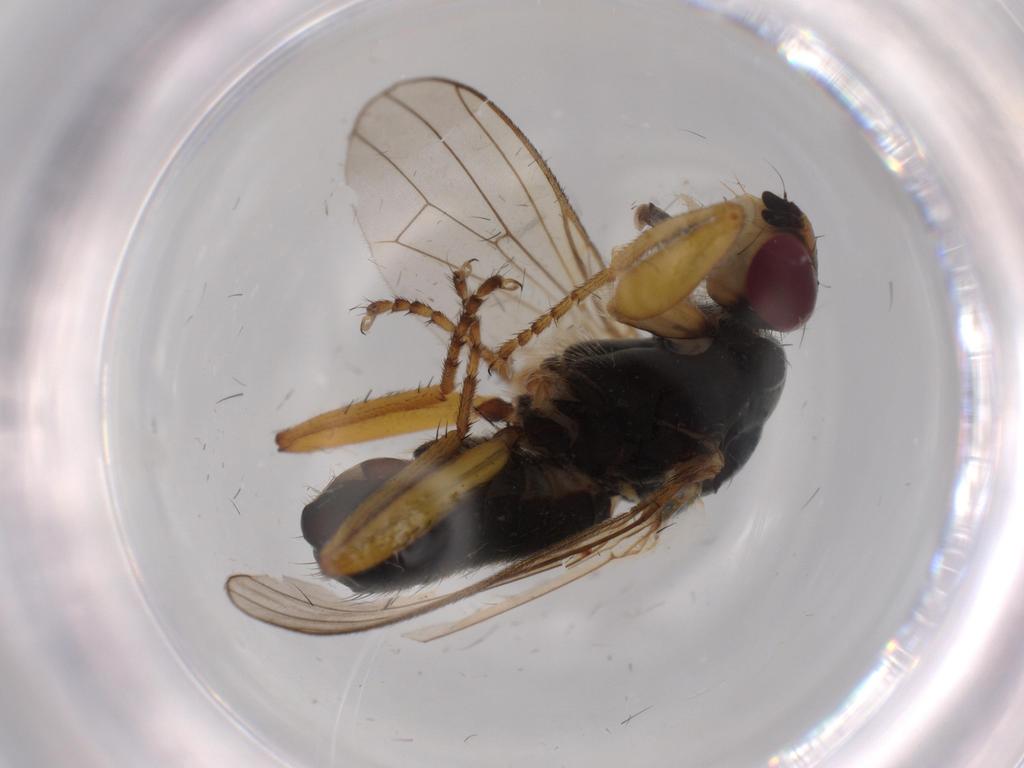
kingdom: Animalia
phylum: Arthropoda
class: Insecta
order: Diptera
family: Scathophagidae
